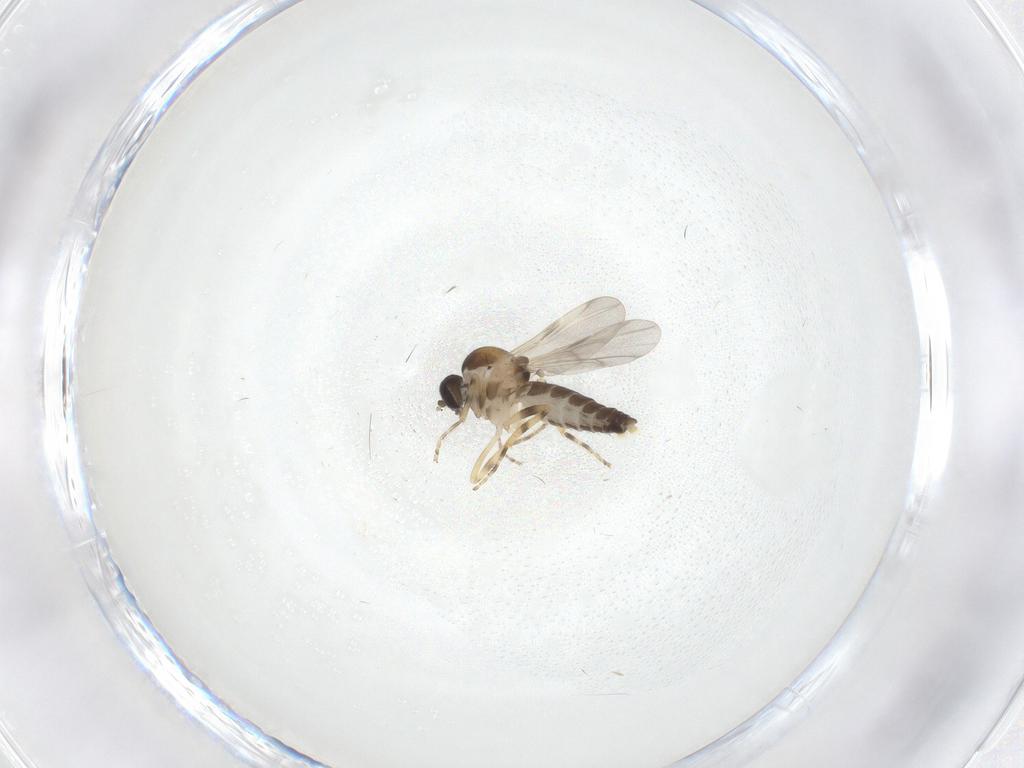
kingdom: Animalia
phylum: Arthropoda
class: Insecta
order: Diptera
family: Ceratopogonidae
